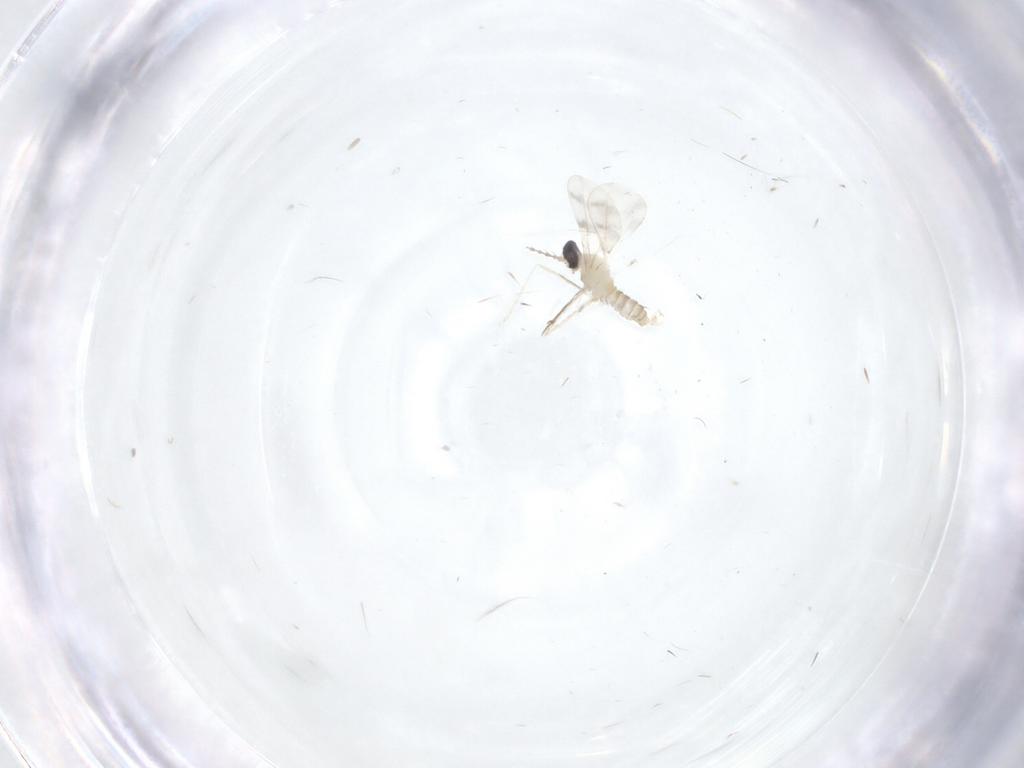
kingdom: Animalia
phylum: Arthropoda
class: Insecta
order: Diptera
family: Cecidomyiidae
